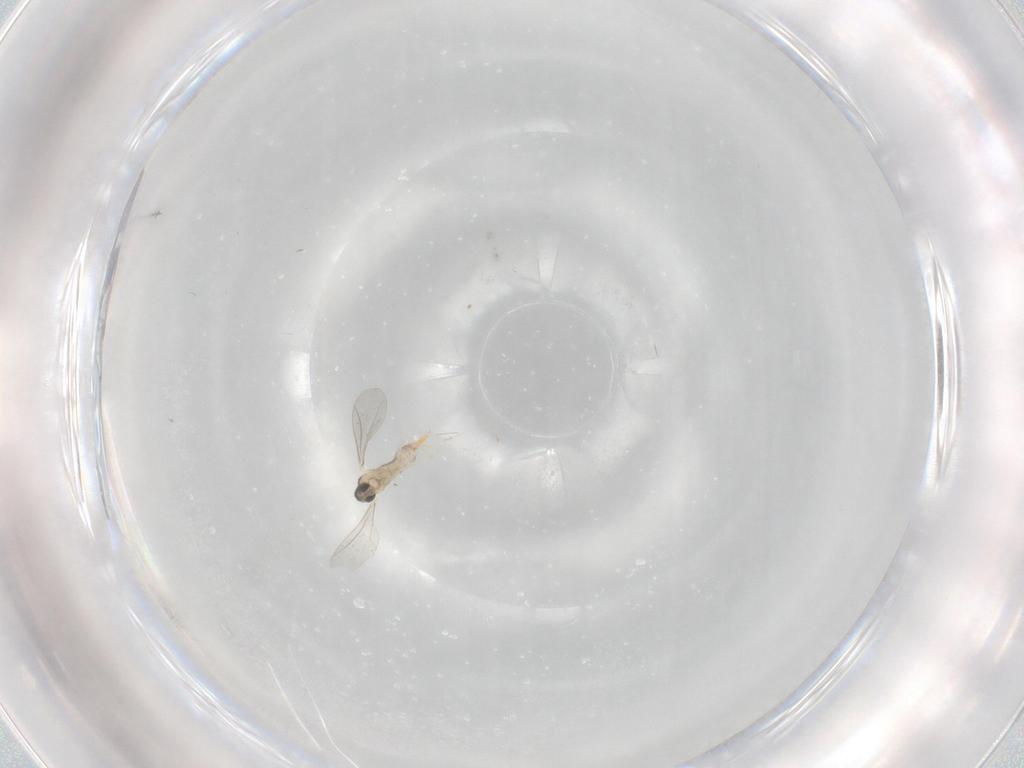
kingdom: Animalia
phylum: Arthropoda
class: Insecta
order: Diptera
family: Cecidomyiidae
